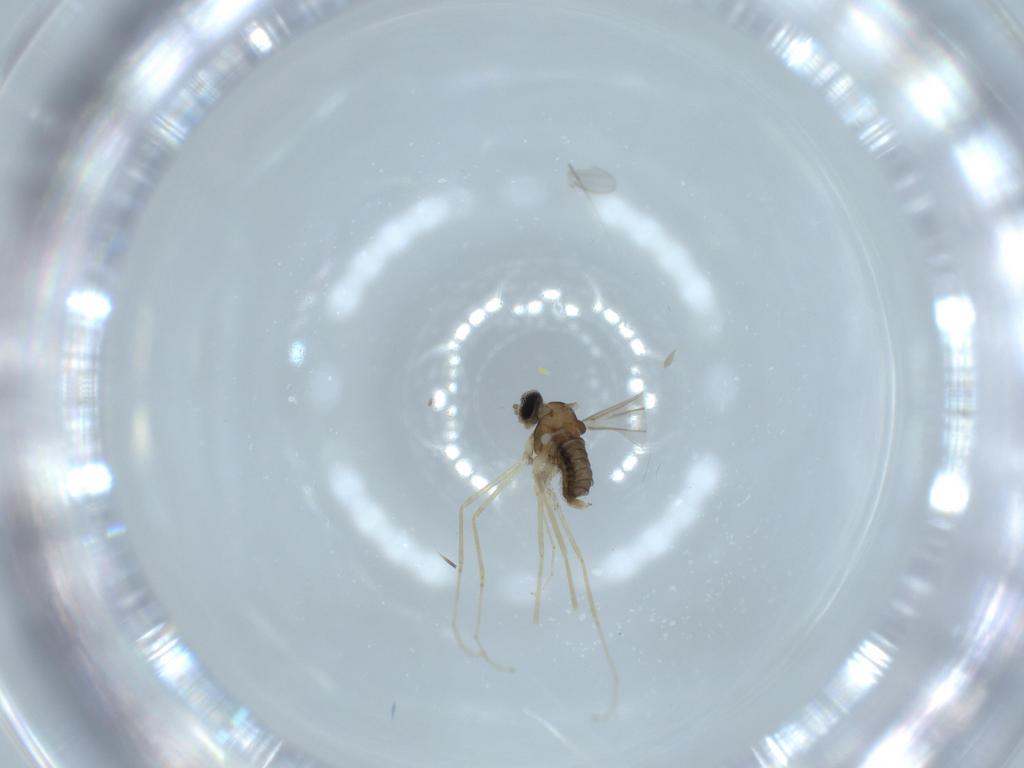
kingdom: Animalia
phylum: Arthropoda
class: Insecta
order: Diptera
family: Cecidomyiidae
